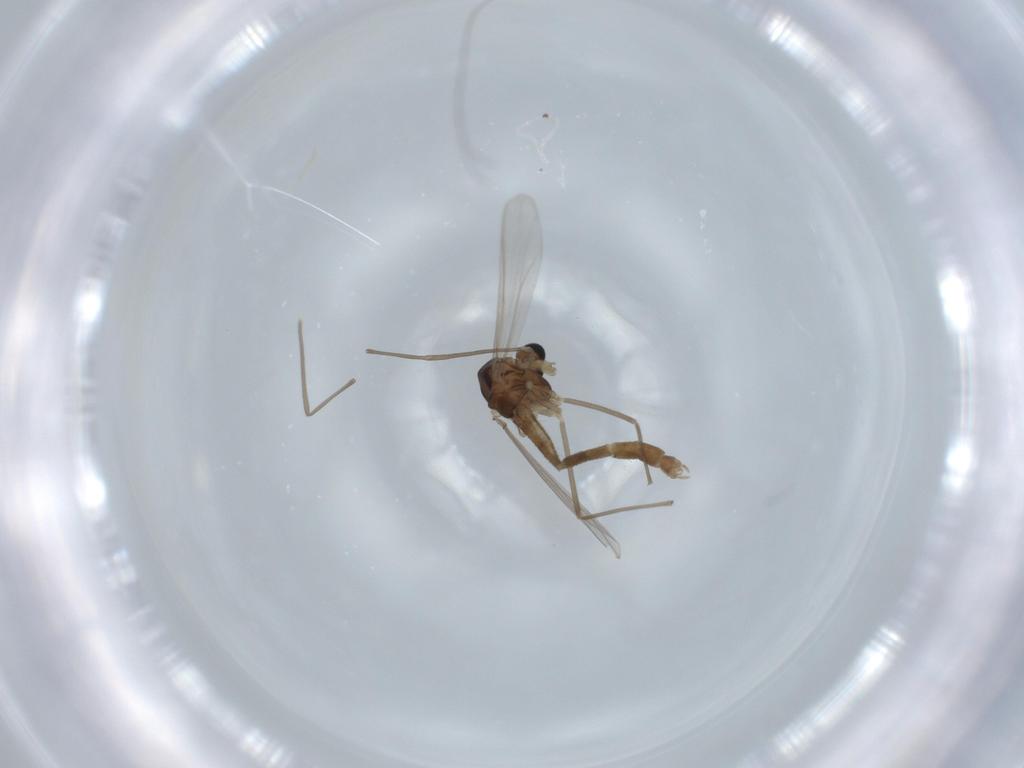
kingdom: Animalia
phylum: Arthropoda
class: Insecta
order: Diptera
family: Chironomidae
